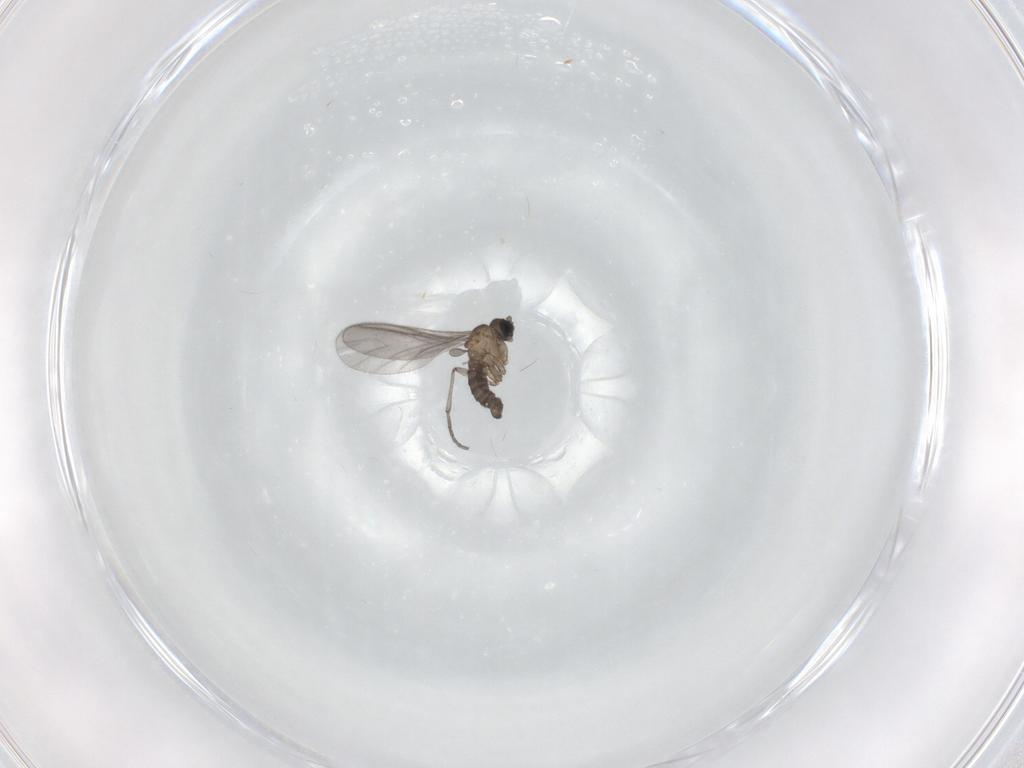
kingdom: Animalia
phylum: Arthropoda
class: Insecta
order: Diptera
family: Sciaridae
